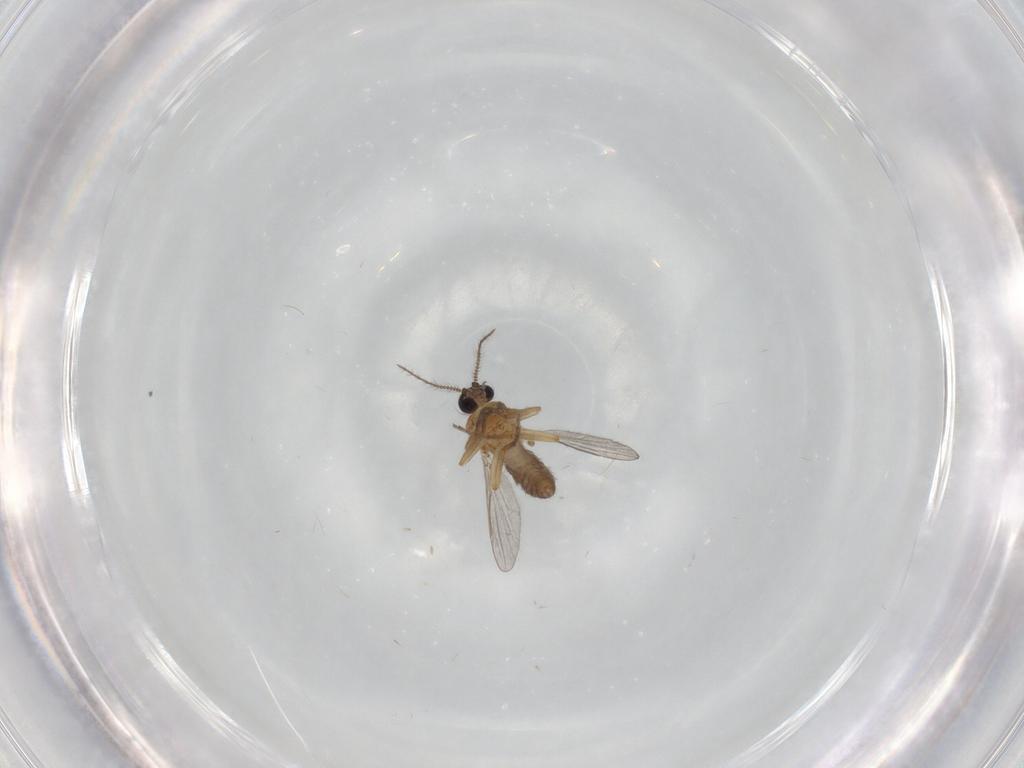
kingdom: Animalia
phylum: Arthropoda
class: Insecta
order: Diptera
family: Ceratopogonidae
